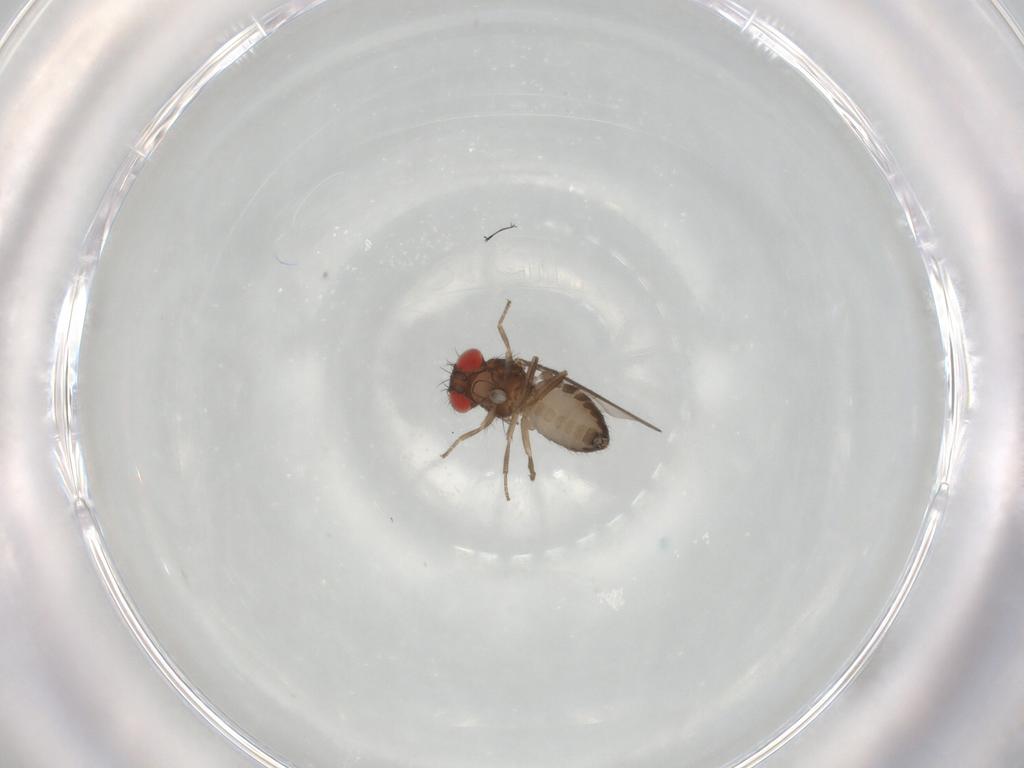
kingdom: Animalia
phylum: Arthropoda
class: Insecta
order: Diptera
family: Drosophilidae
